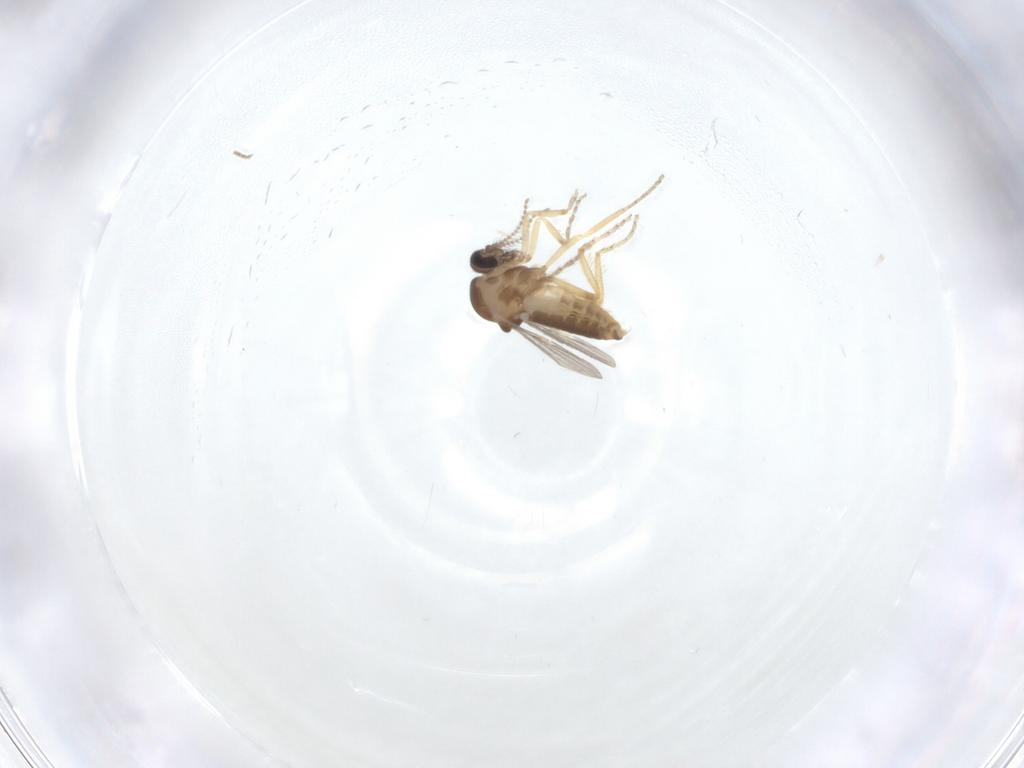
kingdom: Animalia
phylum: Arthropoda
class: Insecta
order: Diptera
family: Ceratopogonidae
